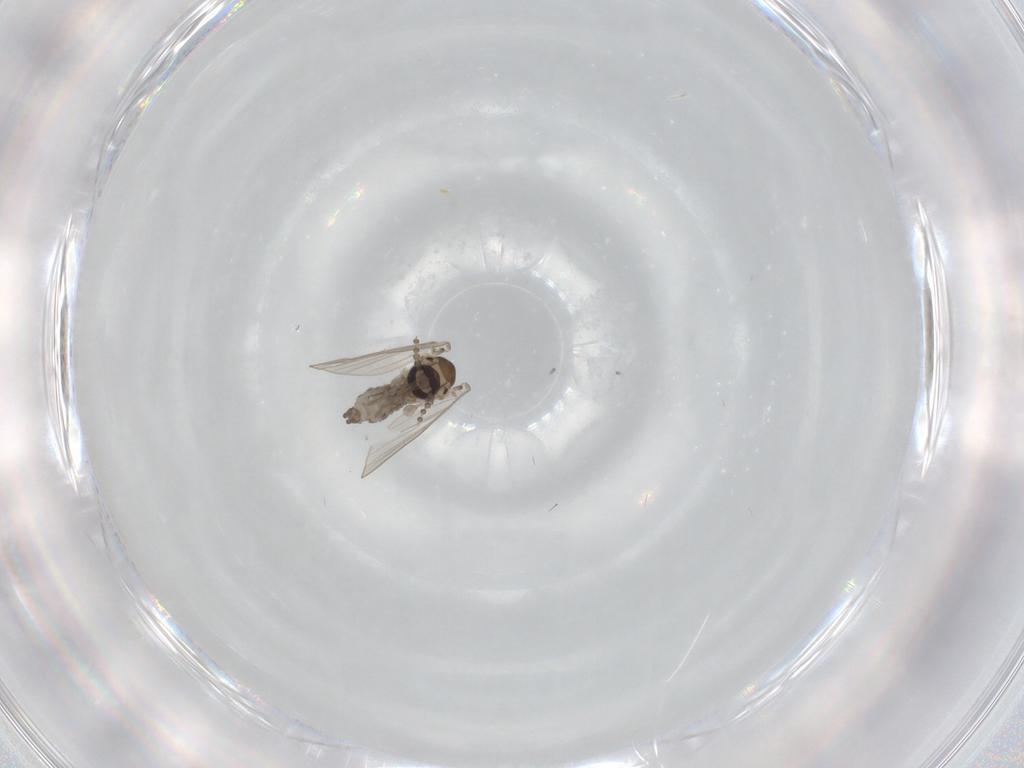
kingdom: Animalia
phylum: Arthropoda
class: Insecta
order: Diptera
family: Psychodidae
